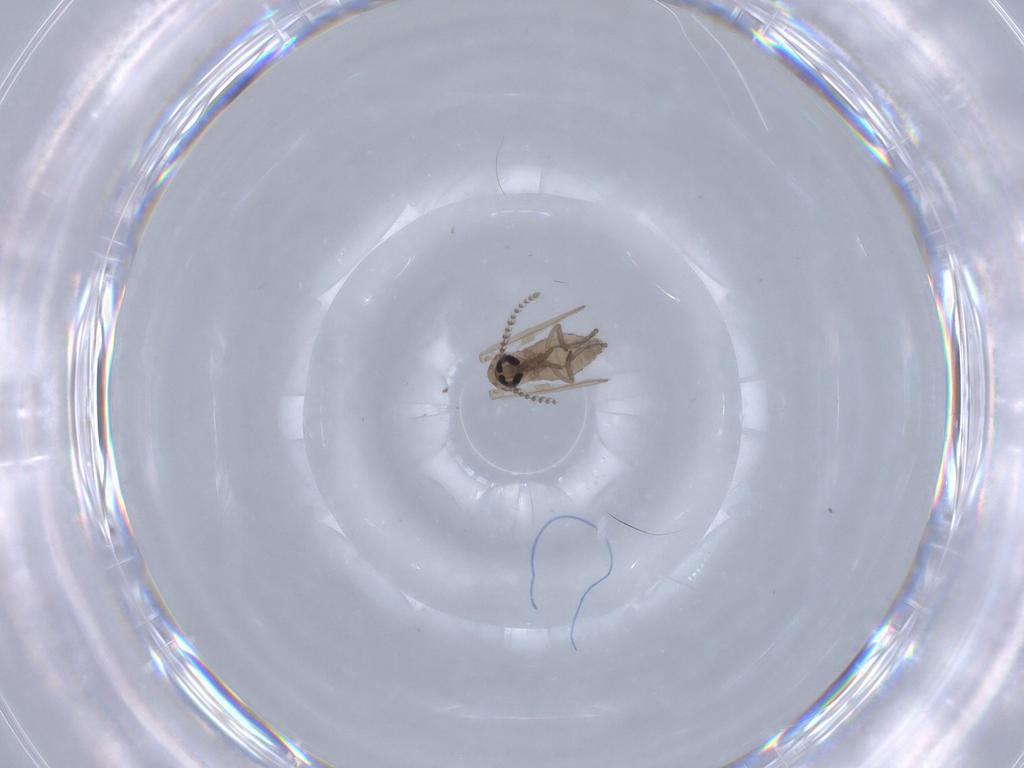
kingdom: Animalia
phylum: Arthropoda
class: Insecta
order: Diptera
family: Psychodidae
